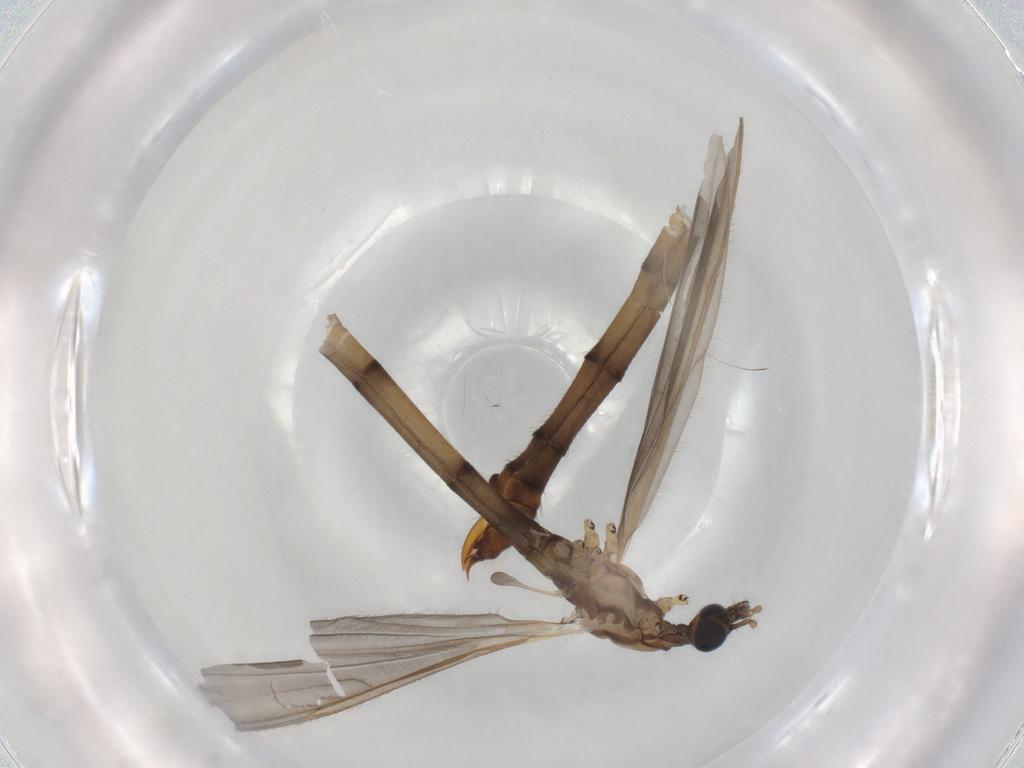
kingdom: Animalia
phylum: Arthropoda
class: Insecta
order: Diptera
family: Limoniidae
